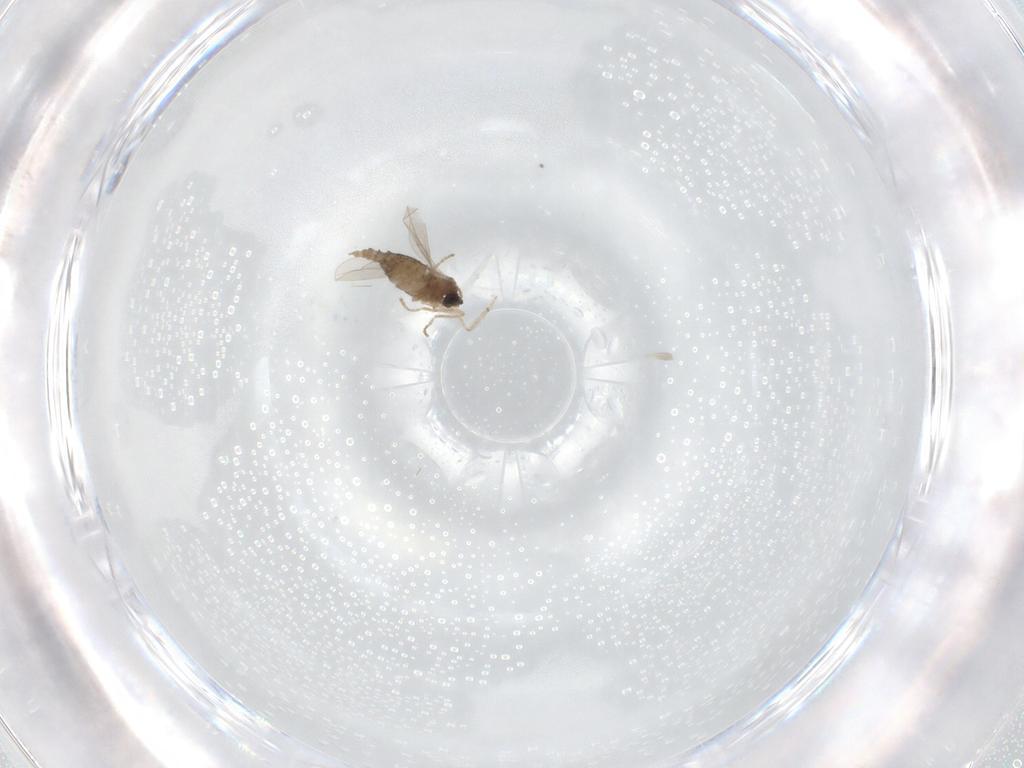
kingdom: Animalia
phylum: Arthropoda
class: Insecta
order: Diptera
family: Cecidomyiidae
